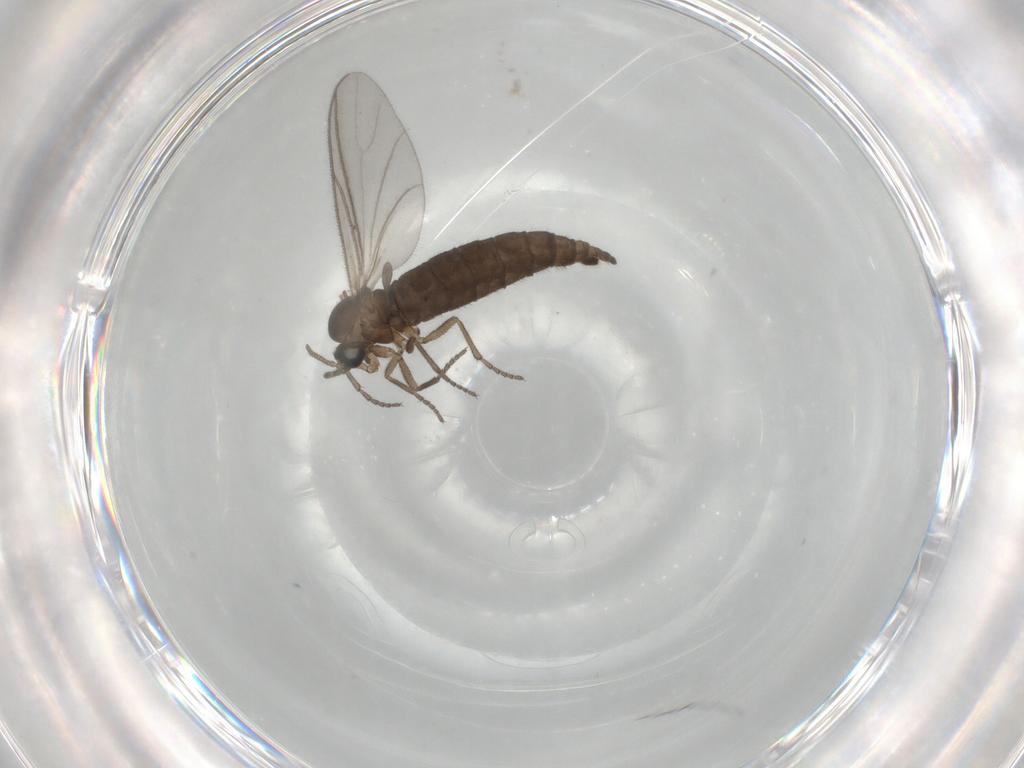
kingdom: Animalia
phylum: Arthropoda
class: Insecta
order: Diptera
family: Sciaridae
